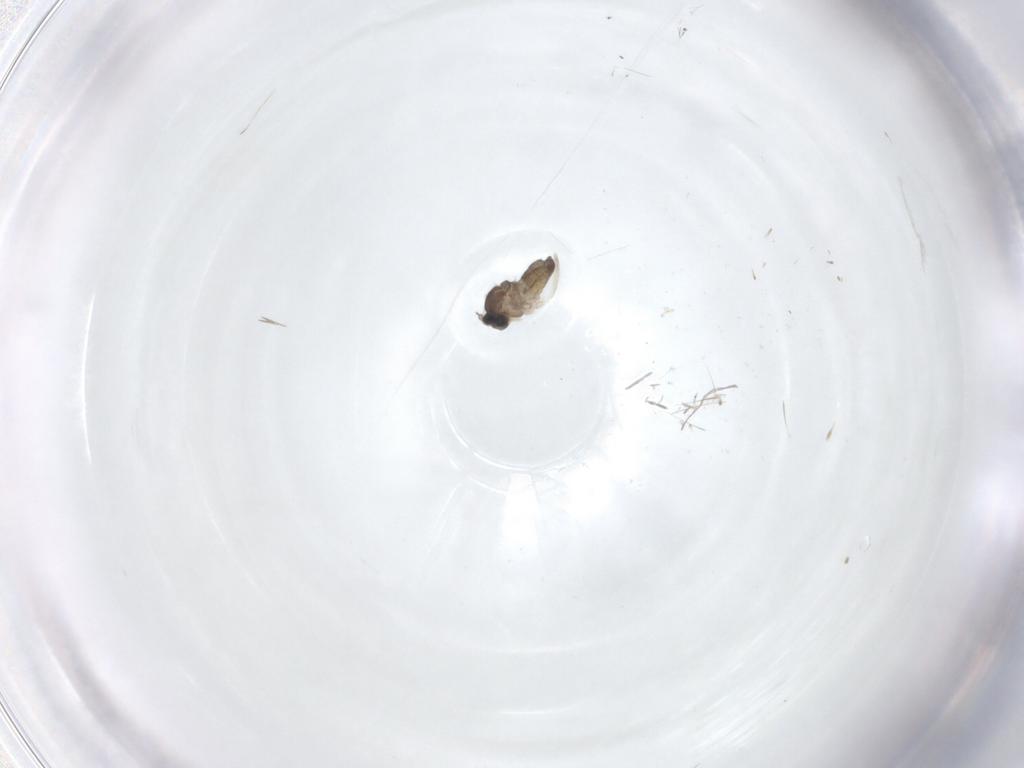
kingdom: Animalia
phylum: Arthropoda
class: Insecta
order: Diptera
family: Cecidomyiidae
